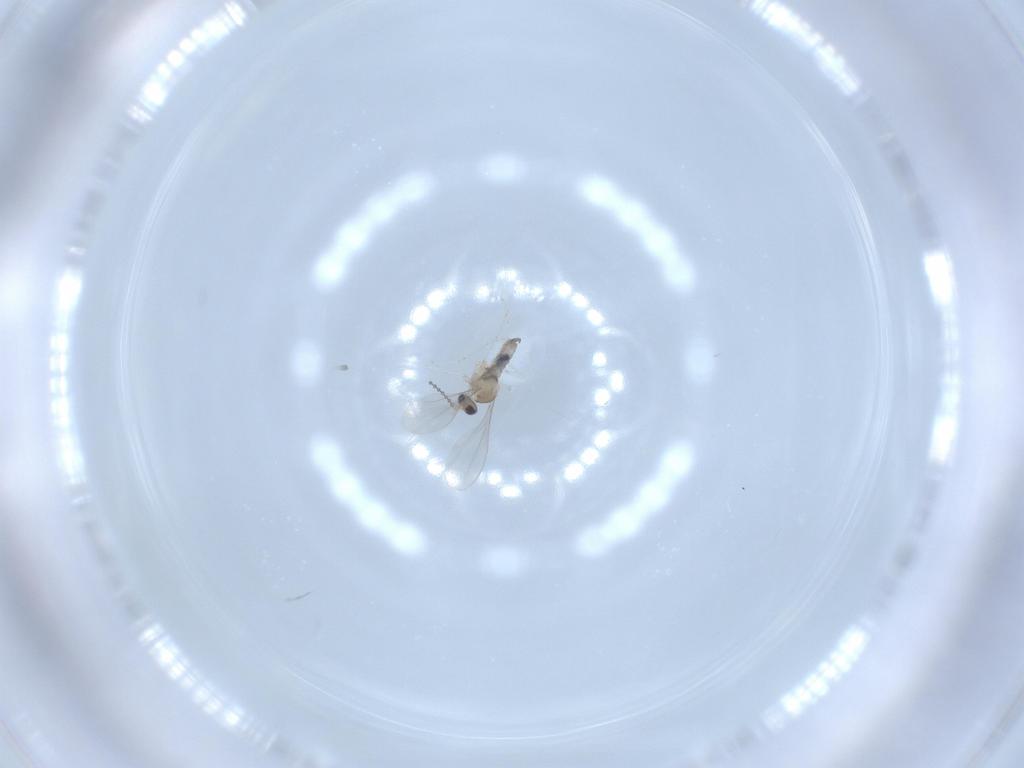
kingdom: Animalia
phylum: Arthropoda
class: Insecta
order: Diptera
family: Cecidomyiidae
